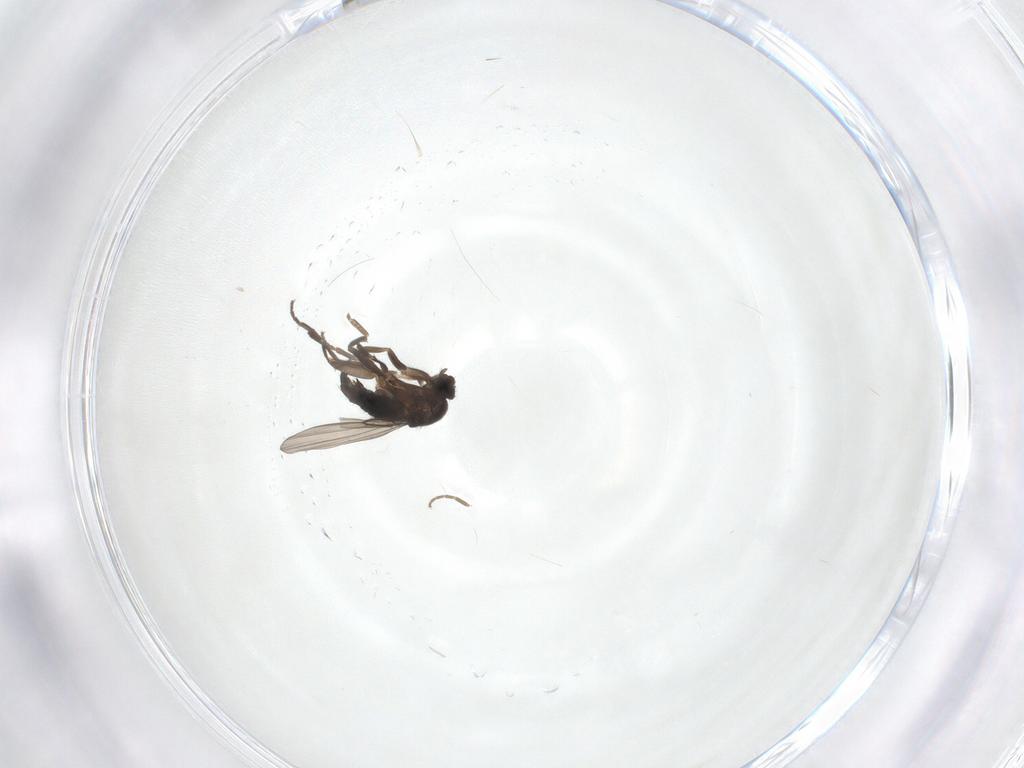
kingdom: Animalia
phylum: Arthropoda
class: Insecta
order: Diptera
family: Phoridae
